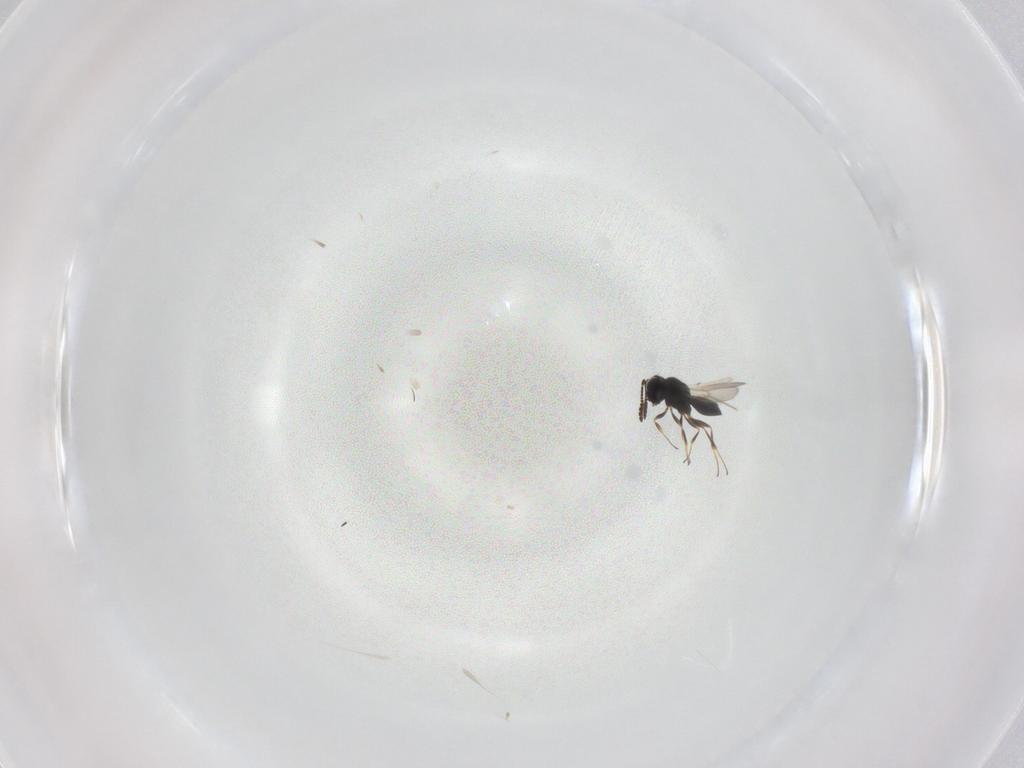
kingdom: Animalia
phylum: Arthropoda
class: Insecta
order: Hymenoptera
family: Scelionidae
